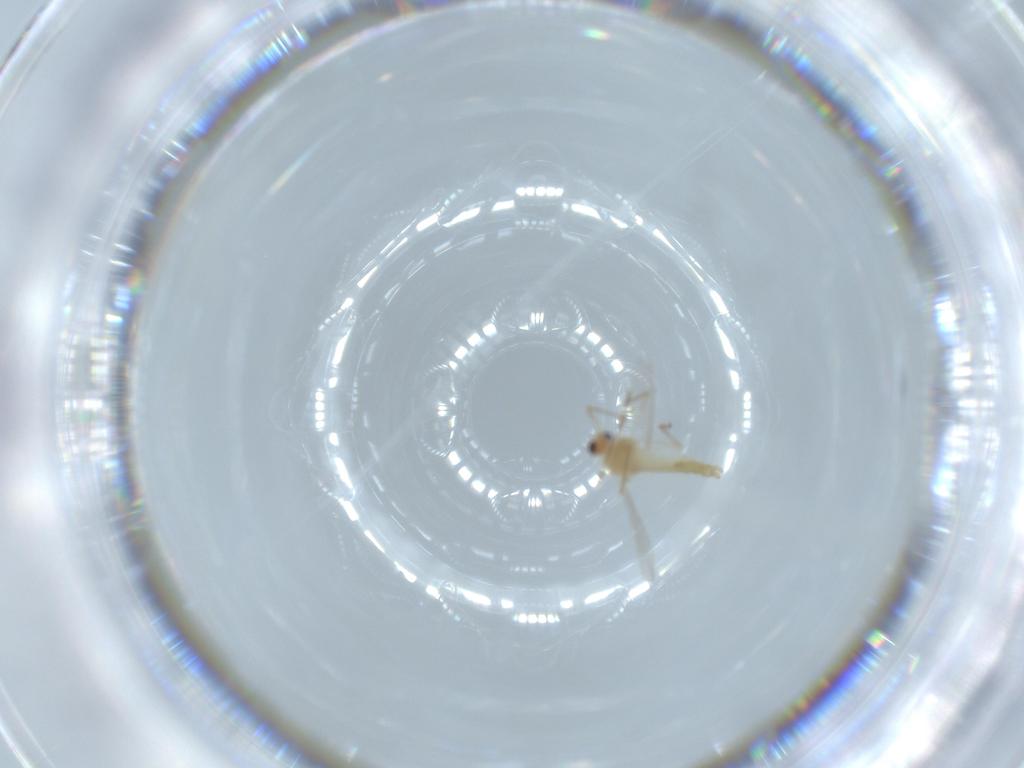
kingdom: Animalia
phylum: Arthropoda
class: Insecta
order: Diptera
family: Chironomidae
